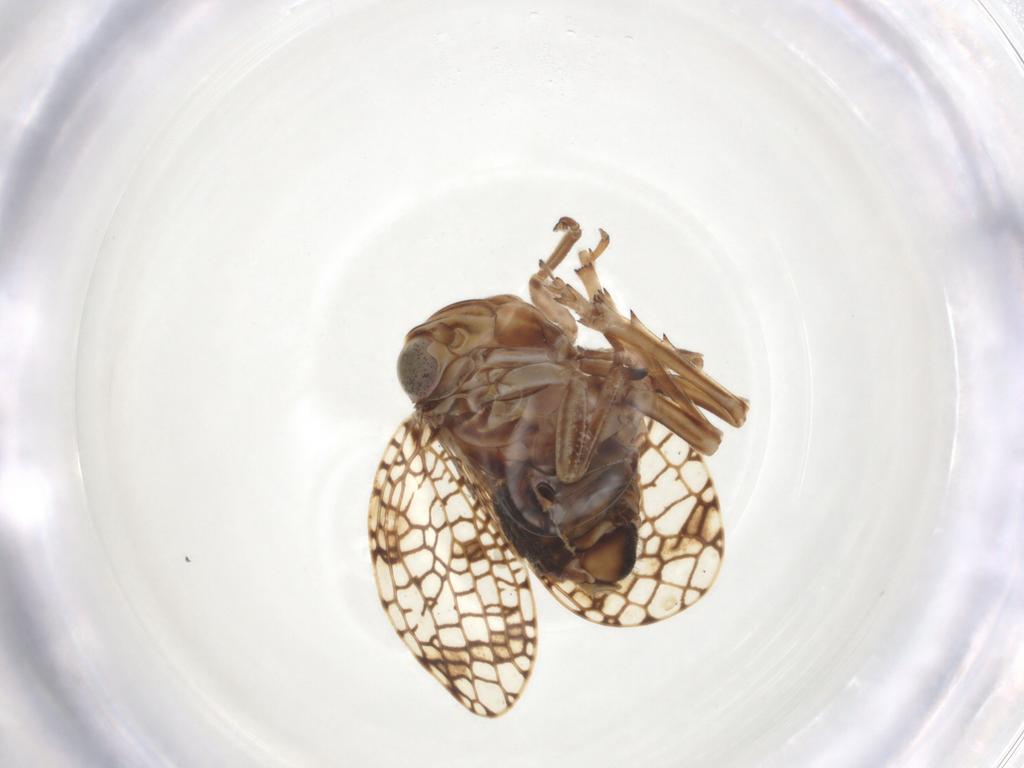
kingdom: Animalia
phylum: Arthropoda
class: Insecta
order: Hemiptera
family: Tropiduchidae
